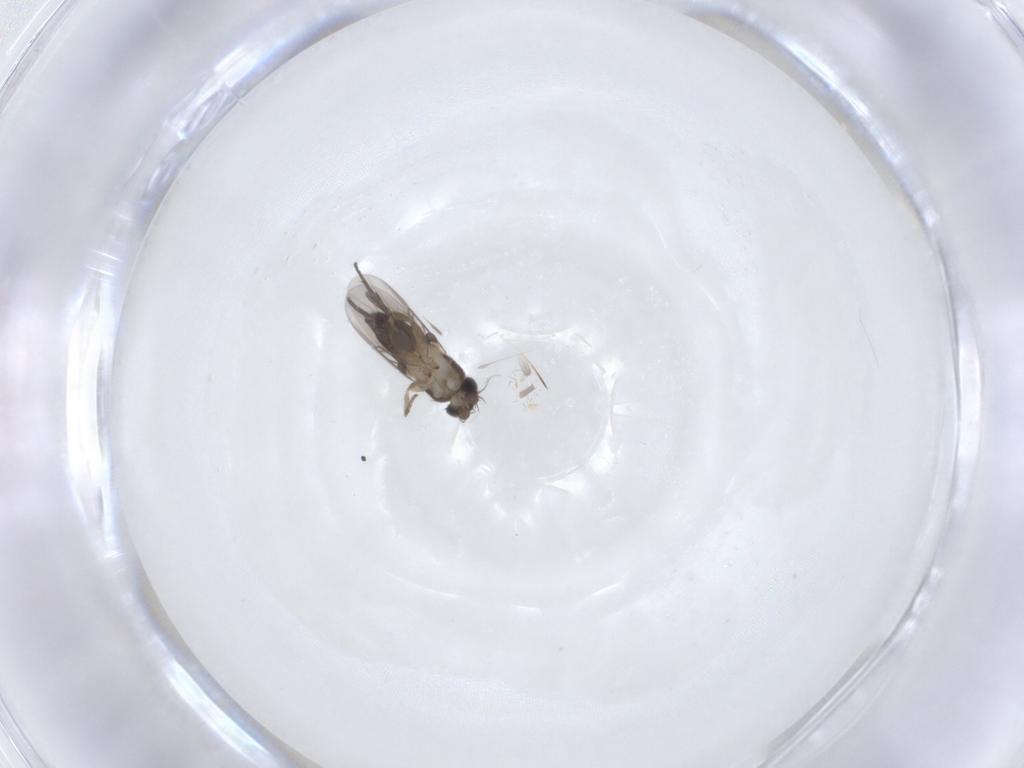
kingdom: Animalia
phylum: Arthropoda
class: Insecta
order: Diptera
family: Phoridae
